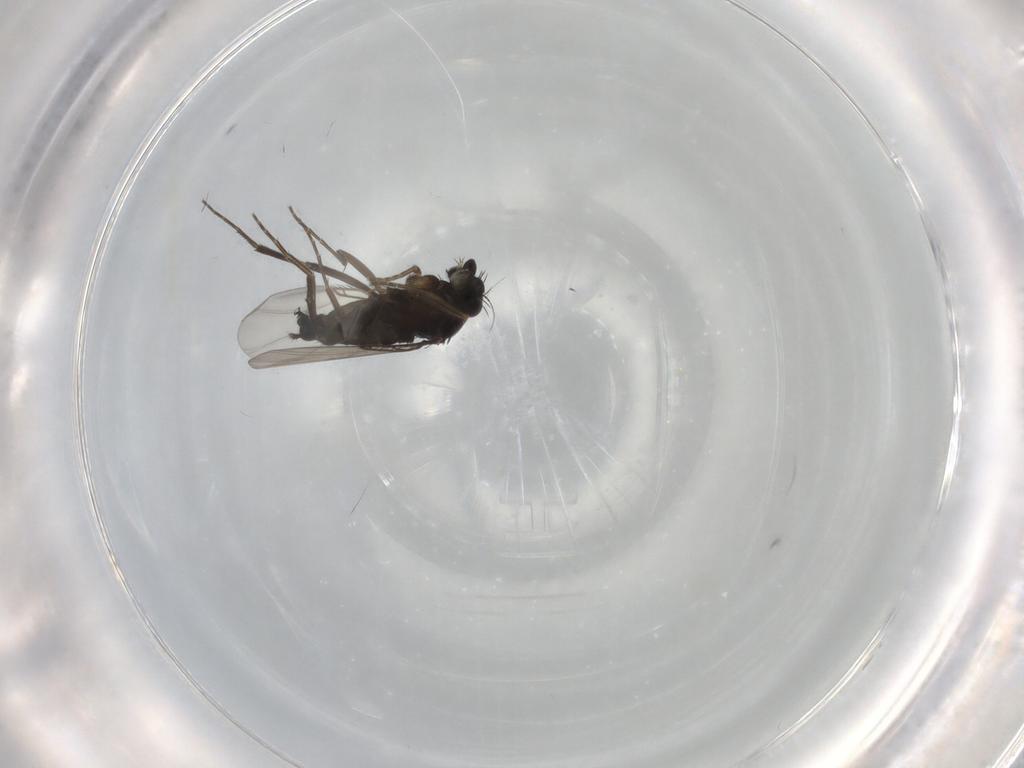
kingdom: Animalia
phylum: Arthropoda
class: Insecta
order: Diptera
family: Phoridae
